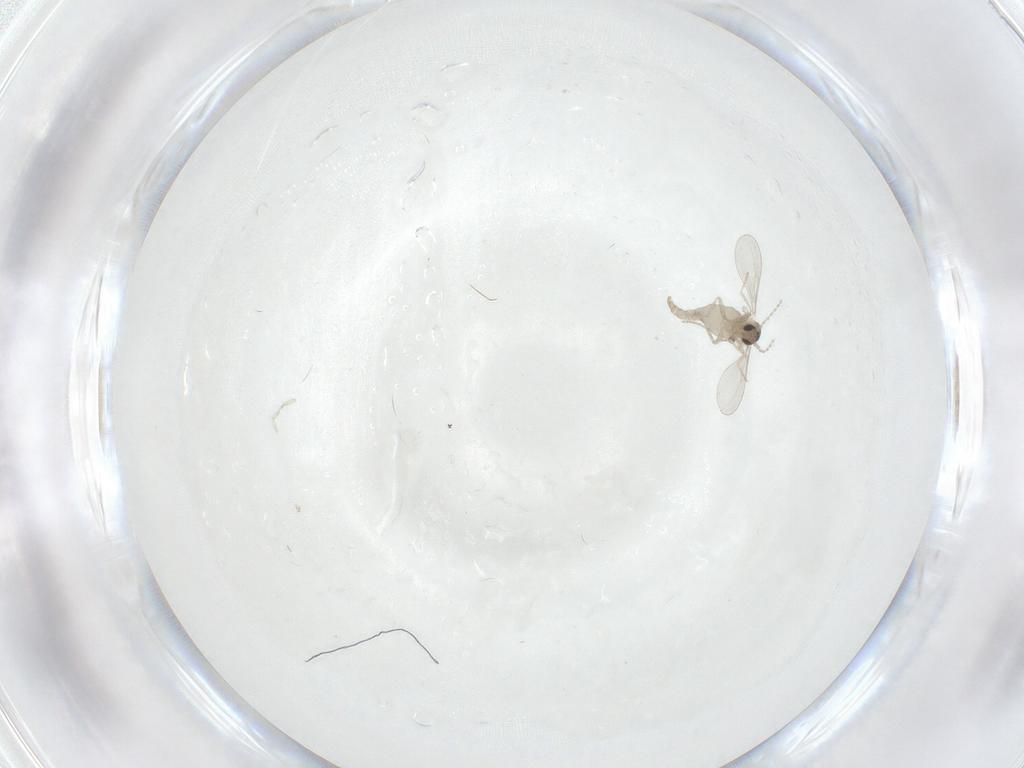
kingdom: Animalia
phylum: Arthropoda
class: Insecta
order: Diptera
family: Cecidomyiidae
